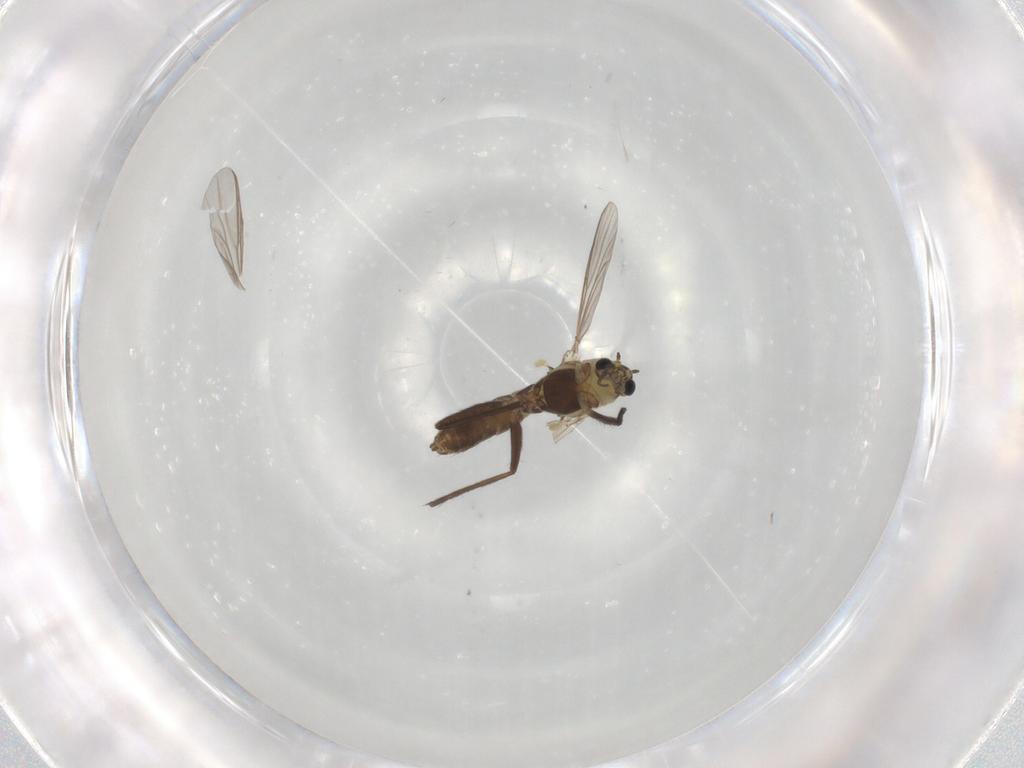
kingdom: Animalia
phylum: Arthropoda
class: Insecta
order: Diptera
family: Chironomidae
